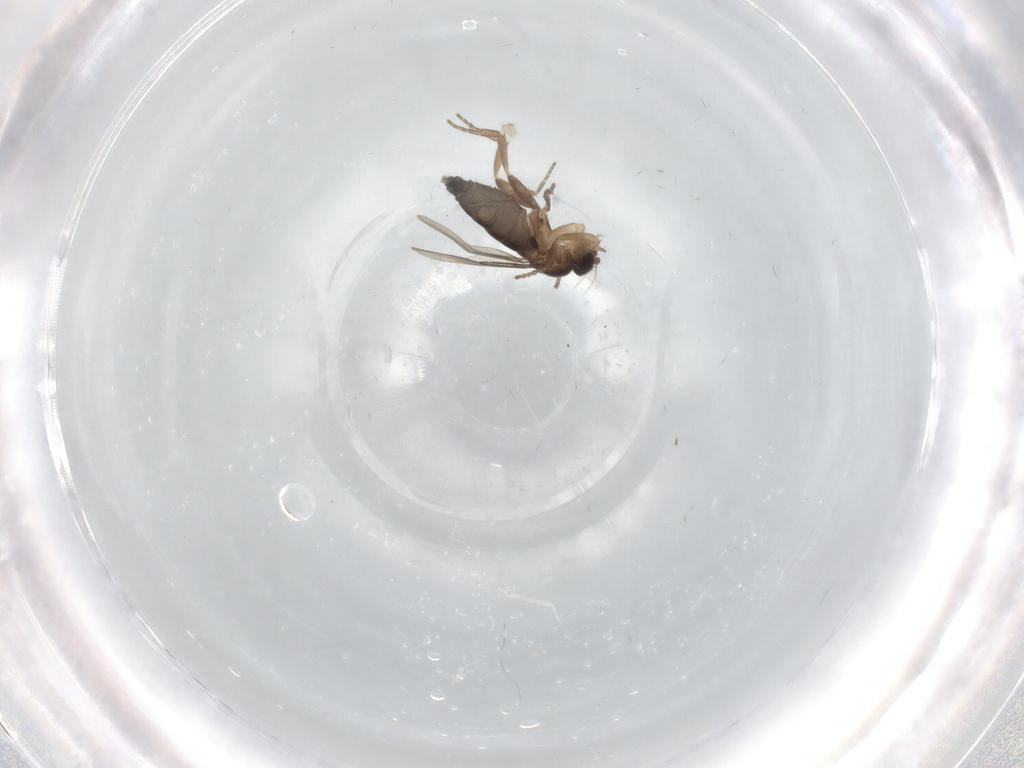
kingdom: Animalia
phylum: Arthropoda
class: Insecta
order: Diptera
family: Phoridae
